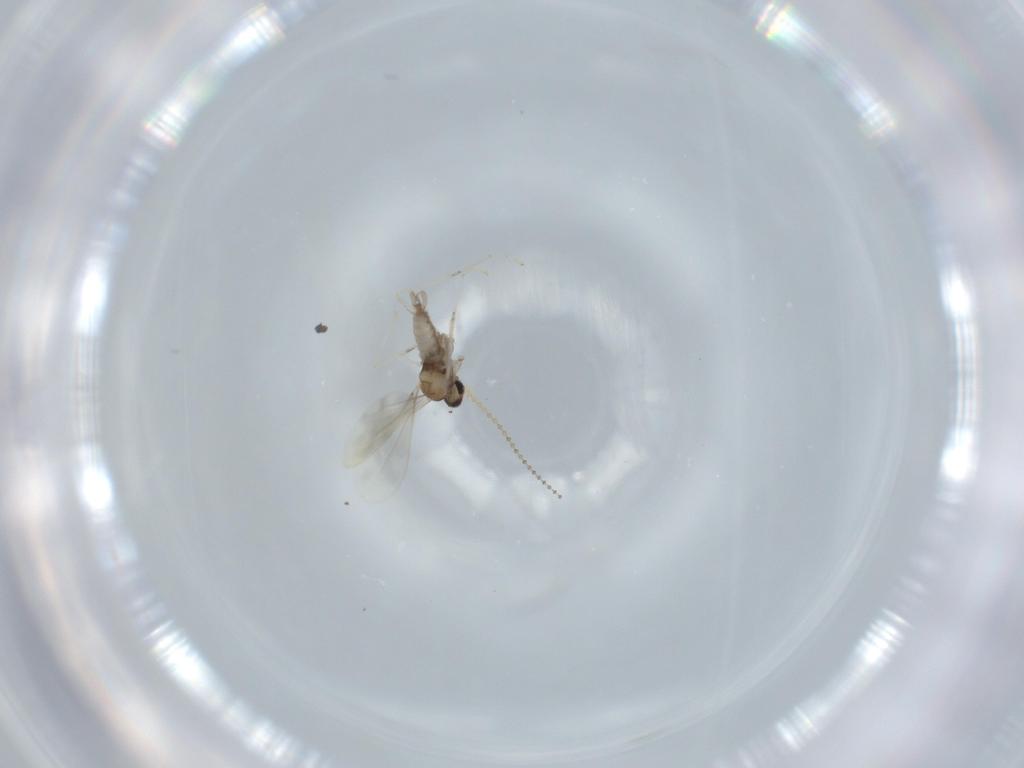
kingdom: Animalia
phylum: Arthropoda
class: Insecta
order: Diptera
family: Cecidomyiidae
